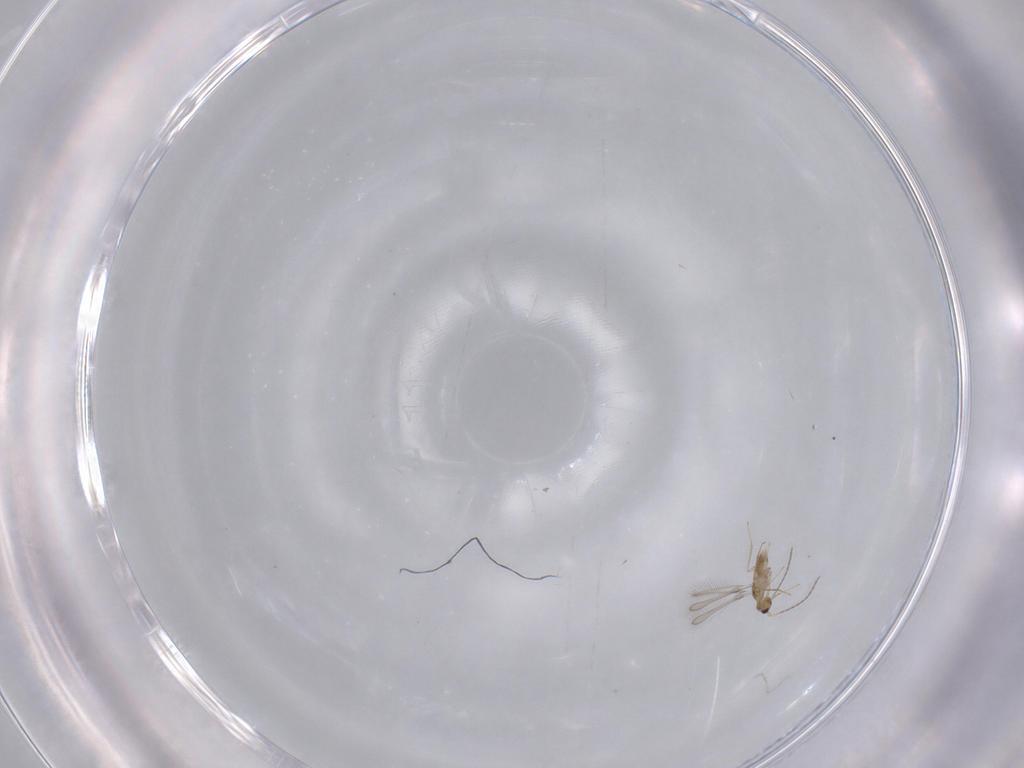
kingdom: Animalia
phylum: Arthropoda
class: Insecta
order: Hymenoptera
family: Mymaridae
